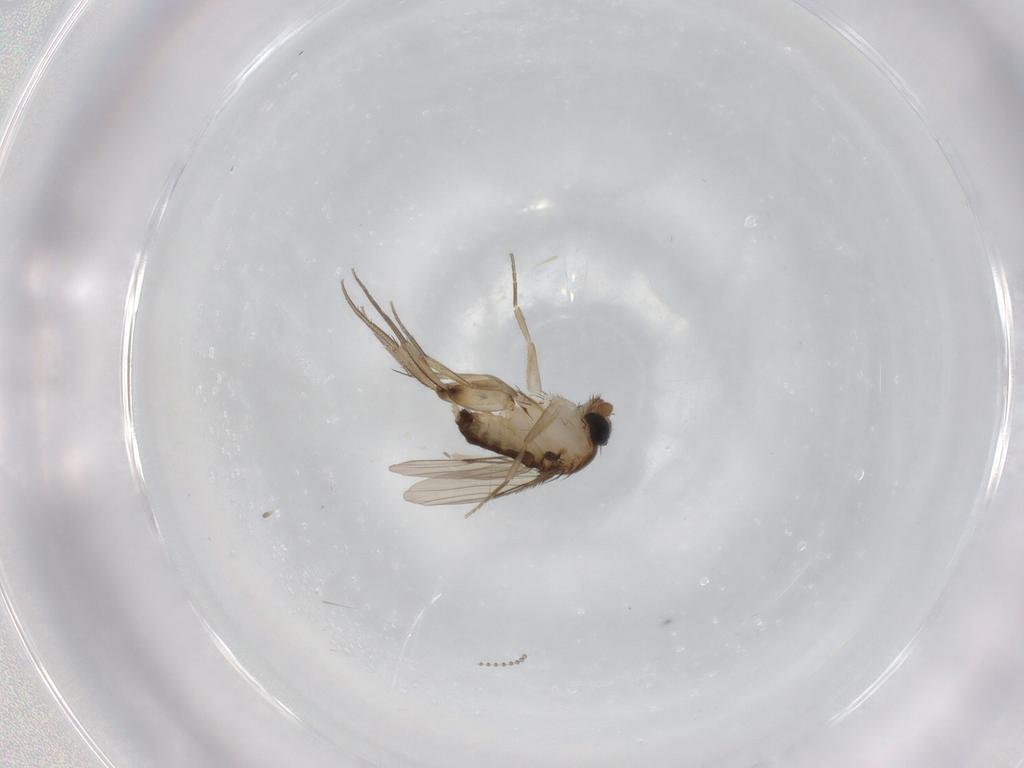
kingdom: Animalia
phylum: Arthropoda
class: Insecta
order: Diptera
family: Phoridae
